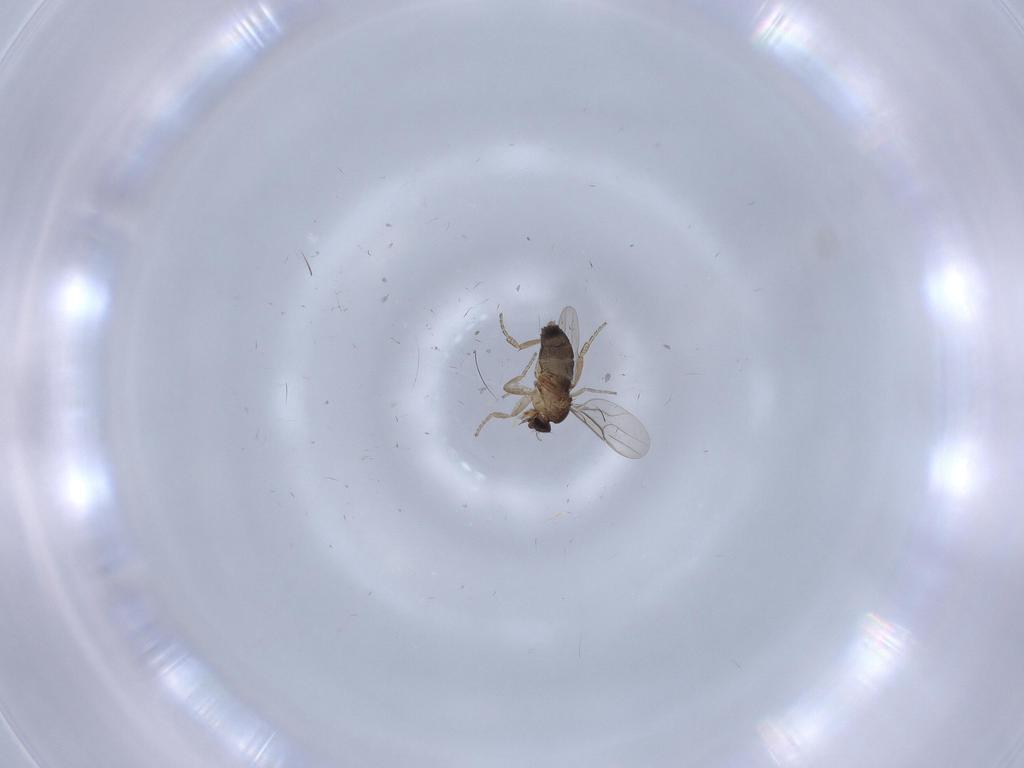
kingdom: Animalia
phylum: Arthropoda
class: Insecta
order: Diptera
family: Phoridae
